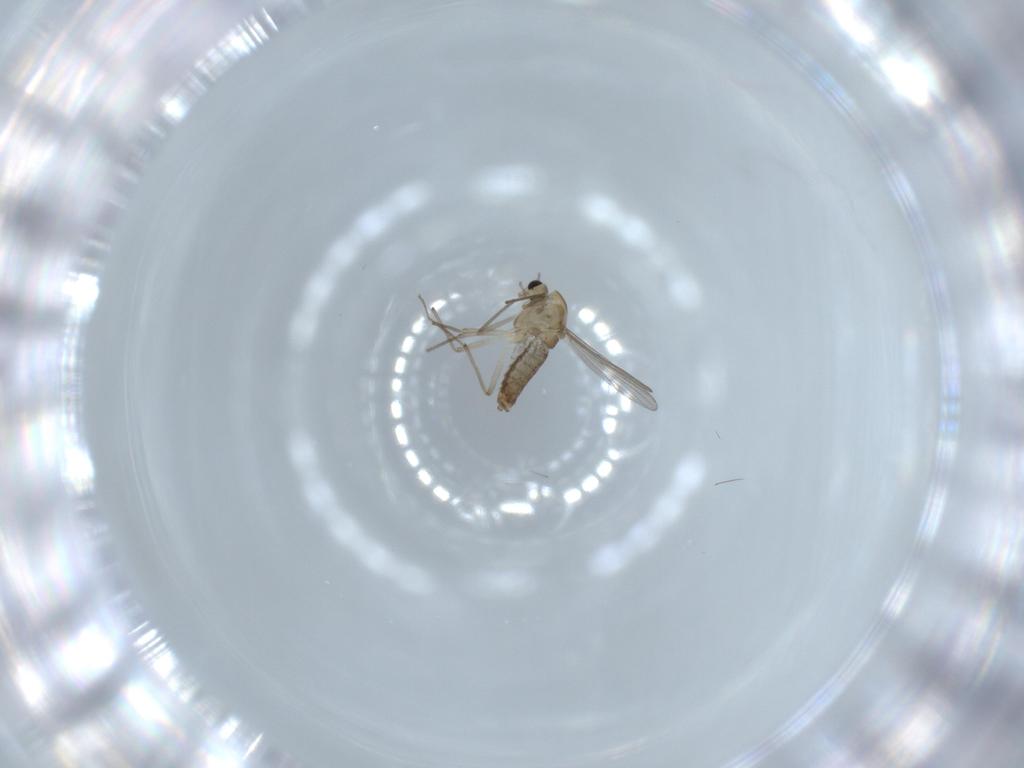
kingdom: Animalia
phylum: Arthropoda
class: Insecta
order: Diptera
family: Chironomidae
